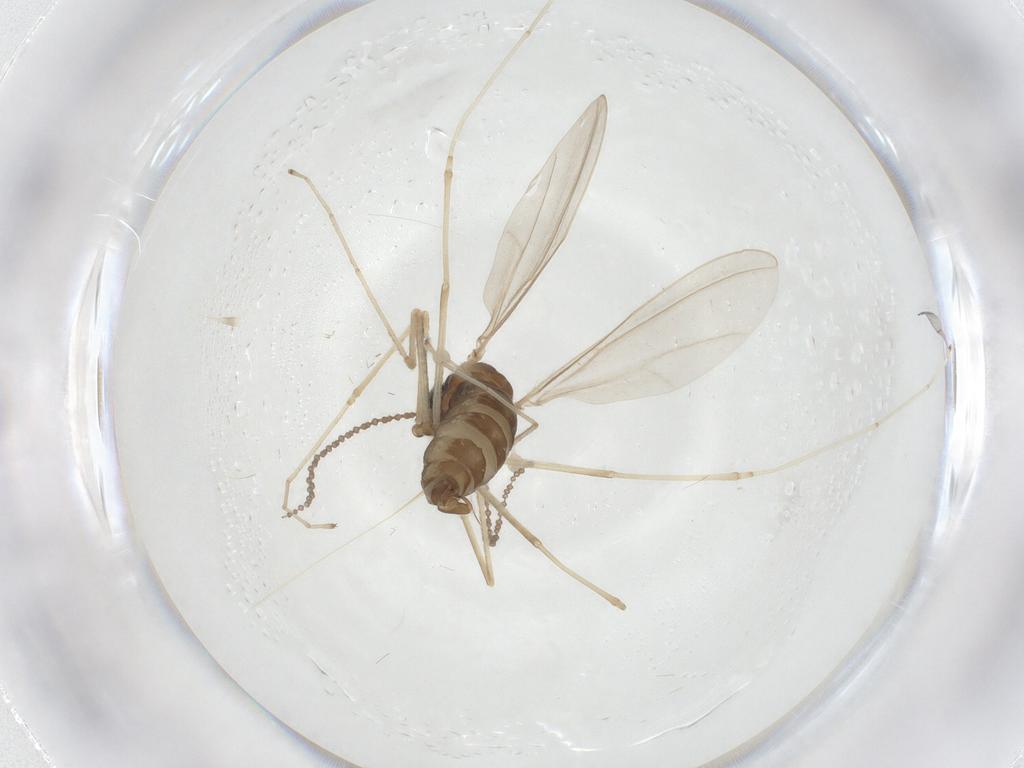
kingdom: Animalia
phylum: Arthropoda
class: Insecta
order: Diptera
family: Cecidomyiidae
